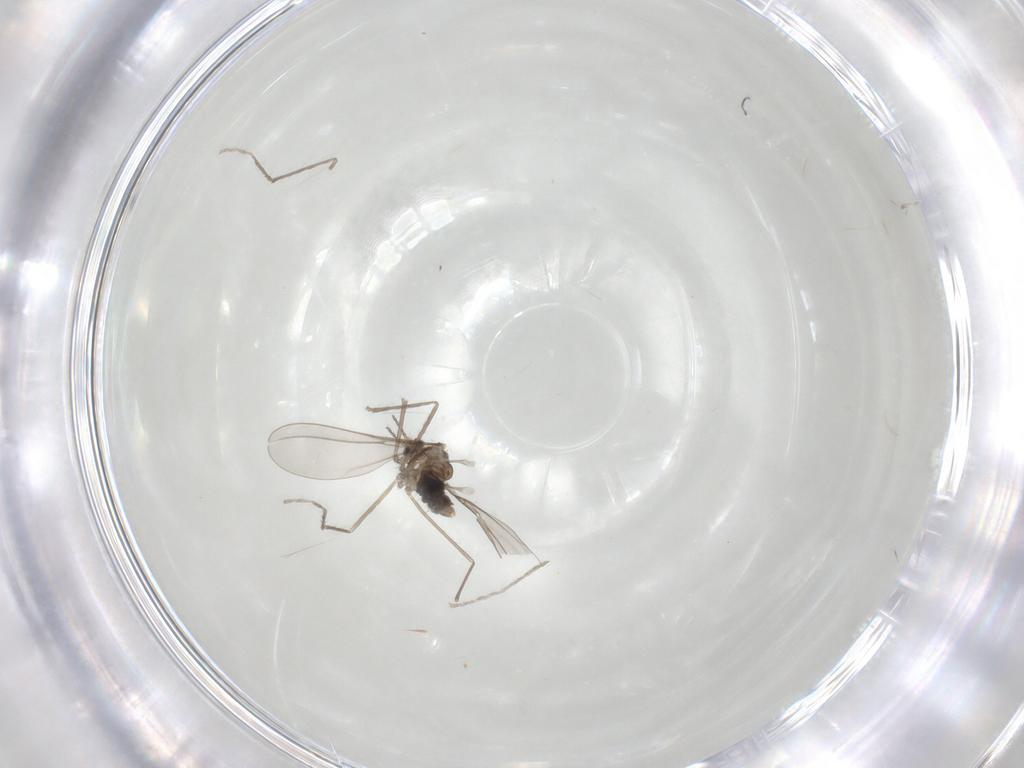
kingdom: Animalia
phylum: Arthropoda
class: Insecta
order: Diptera
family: Cecidomyiidae
